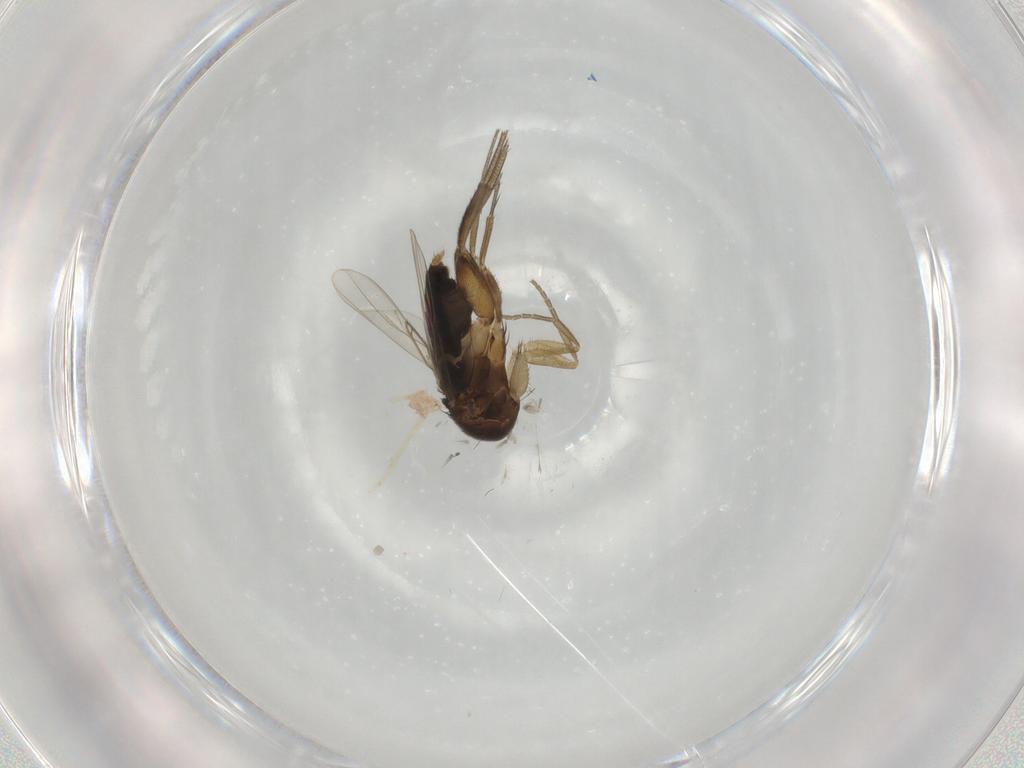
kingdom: Animalia
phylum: Arthropoda
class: Insecta
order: Diptera
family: Phoridae
